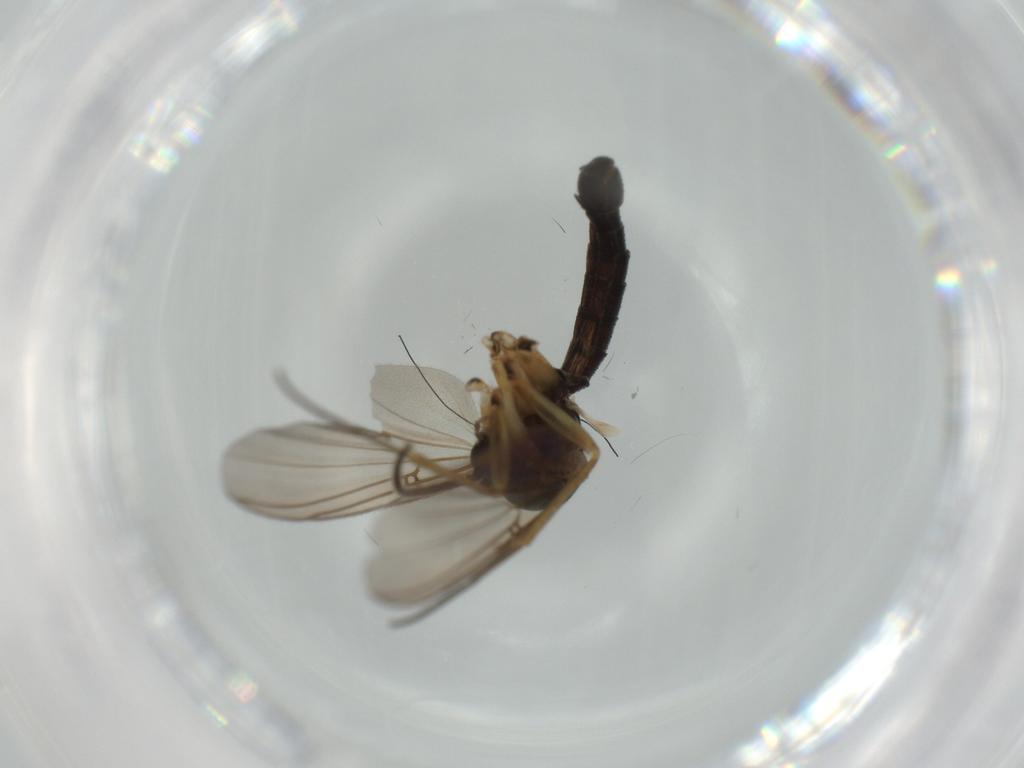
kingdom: Animalia
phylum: Arthropoda
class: Insecta
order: Diptera
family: Chironomidae
